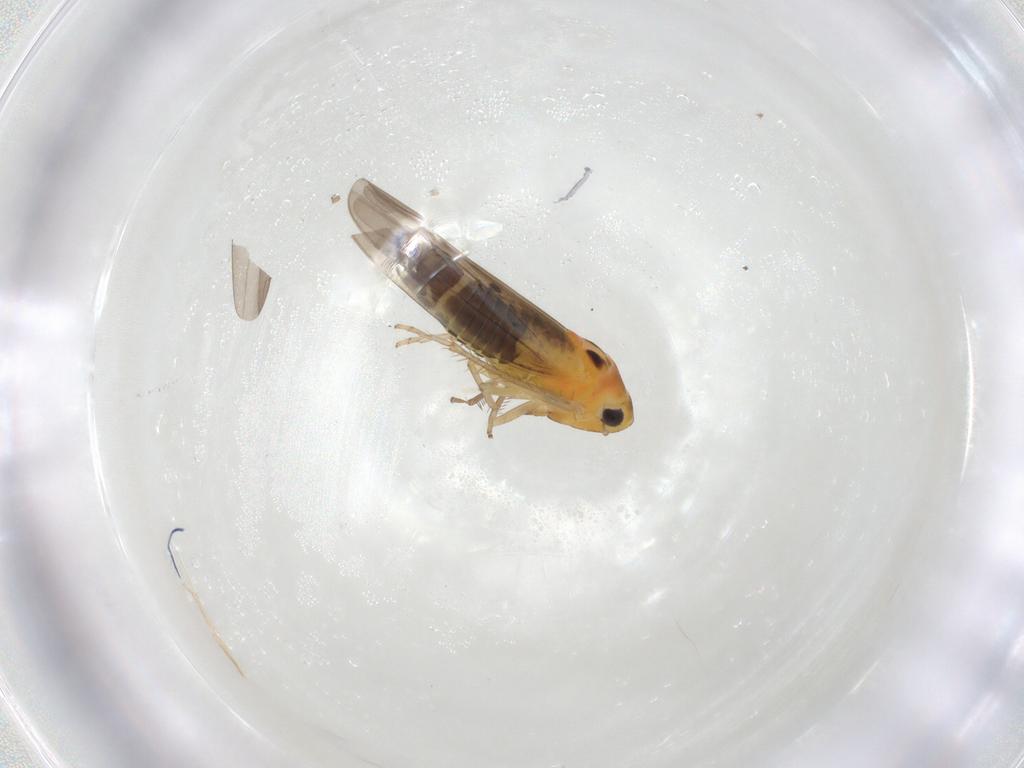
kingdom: Animalia
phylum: Arthropoda
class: Insecta
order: Hemiptera
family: Cicadellidae
